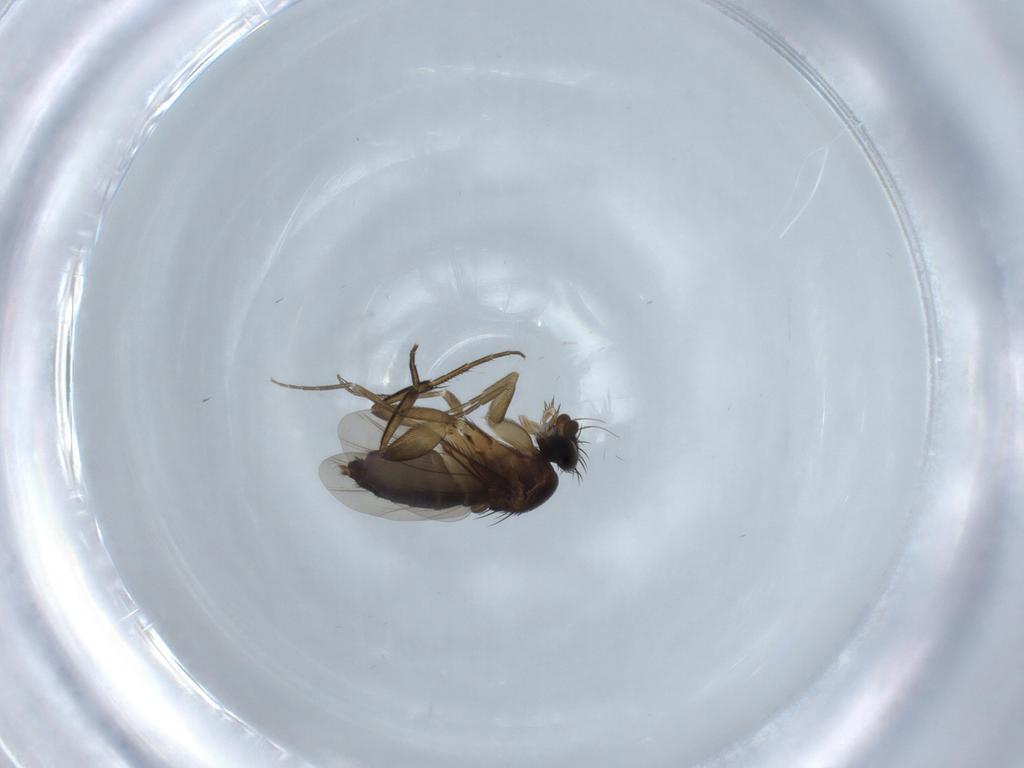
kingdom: Animalia
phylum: Arthropoda
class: Insecta
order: Diptera
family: Phoridae
